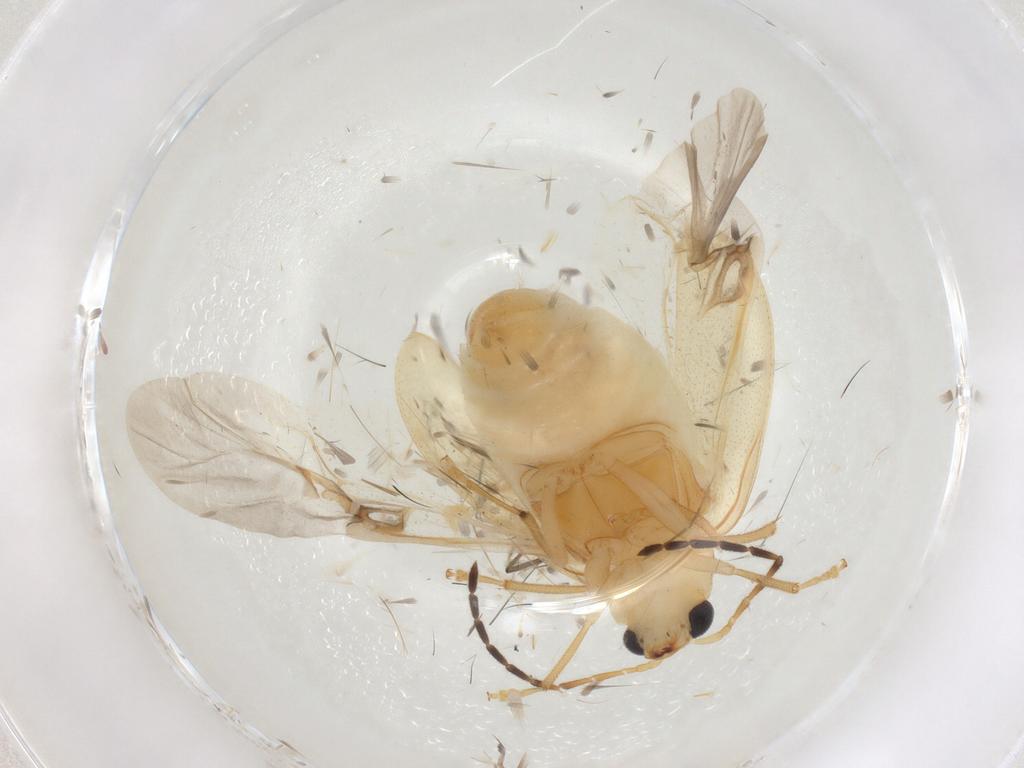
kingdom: Animalia
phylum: Arthropoda
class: Insecta
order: Coleoptera
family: Chrysomelidae
